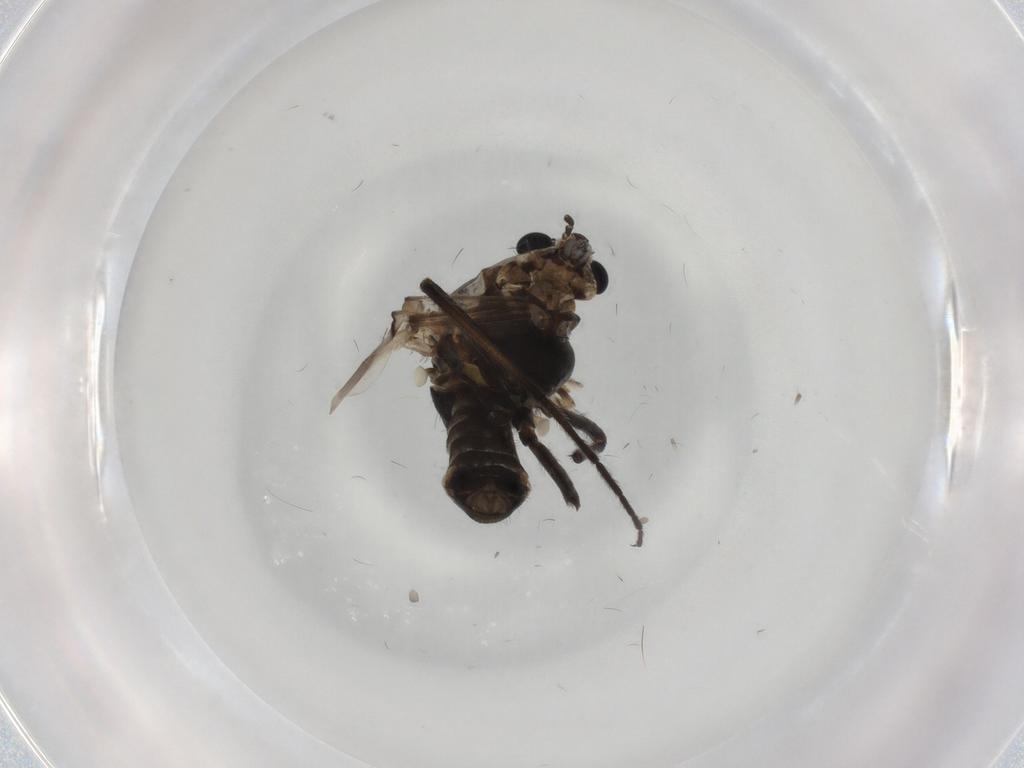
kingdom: Animalia
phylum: Arthropoda
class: Insecta
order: Diptera
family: Chironomidae
